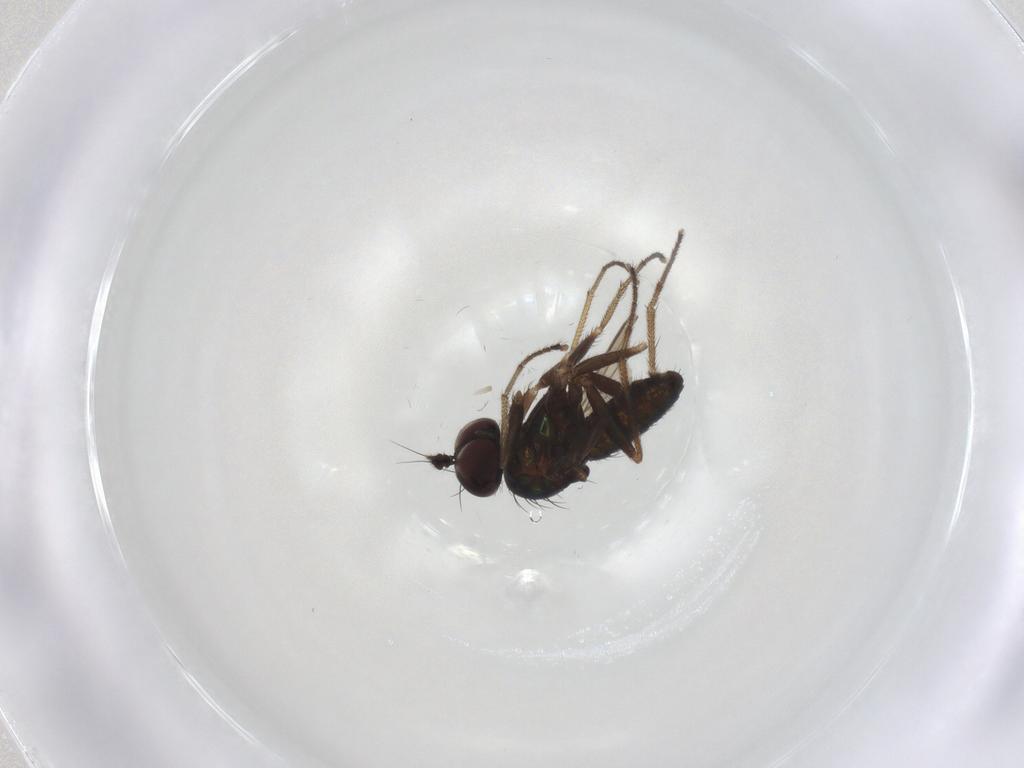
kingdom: Animalia
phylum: Arthropoda
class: Insecta
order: Diptera
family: Dolichopodidae
